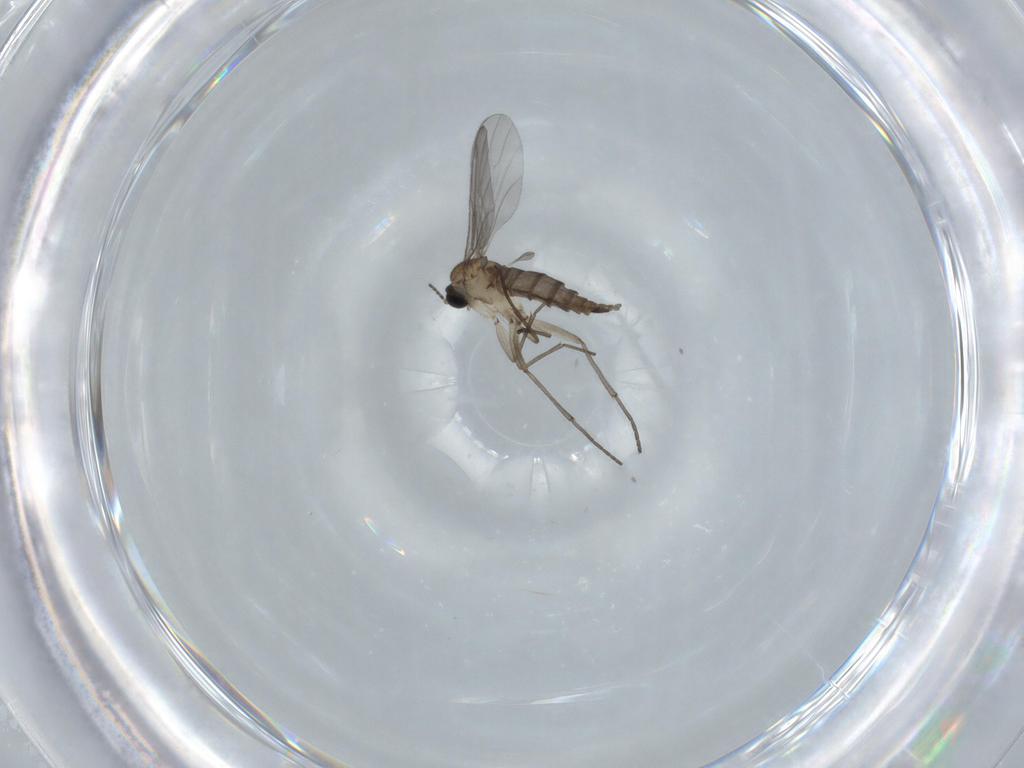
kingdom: Animalia
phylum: Arthropoda
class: Insecta
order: Diptera
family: Sciaridae
